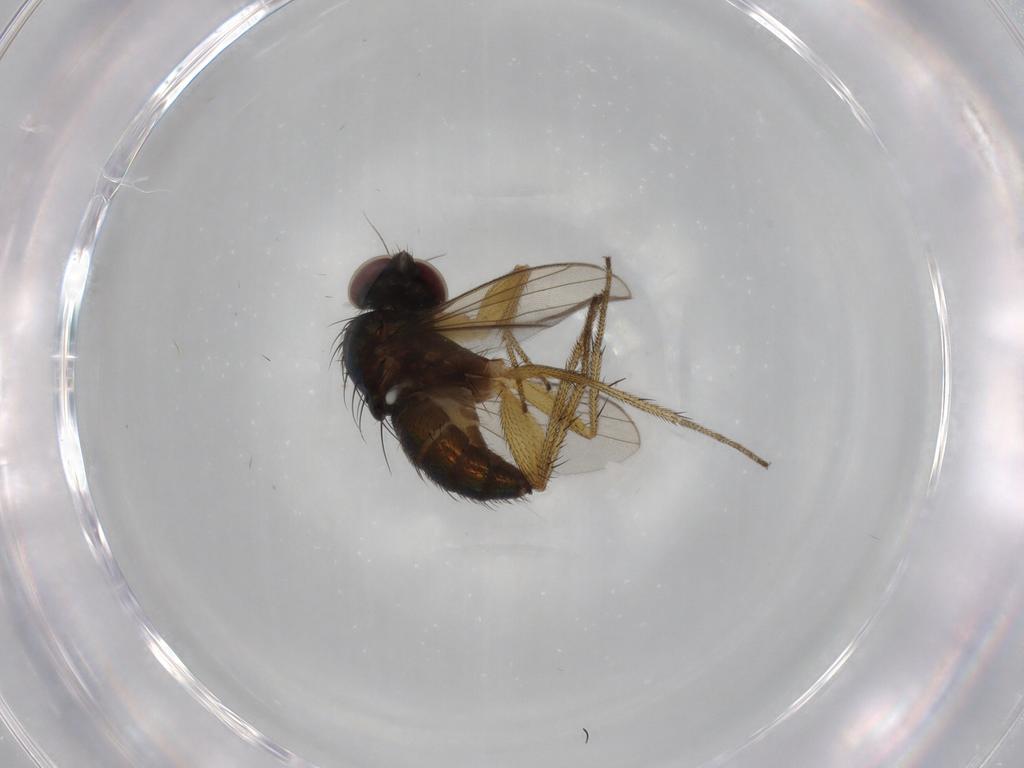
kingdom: Animalia
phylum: Arthropoda
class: Insecta
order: Diptera
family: Dolichopodidae
